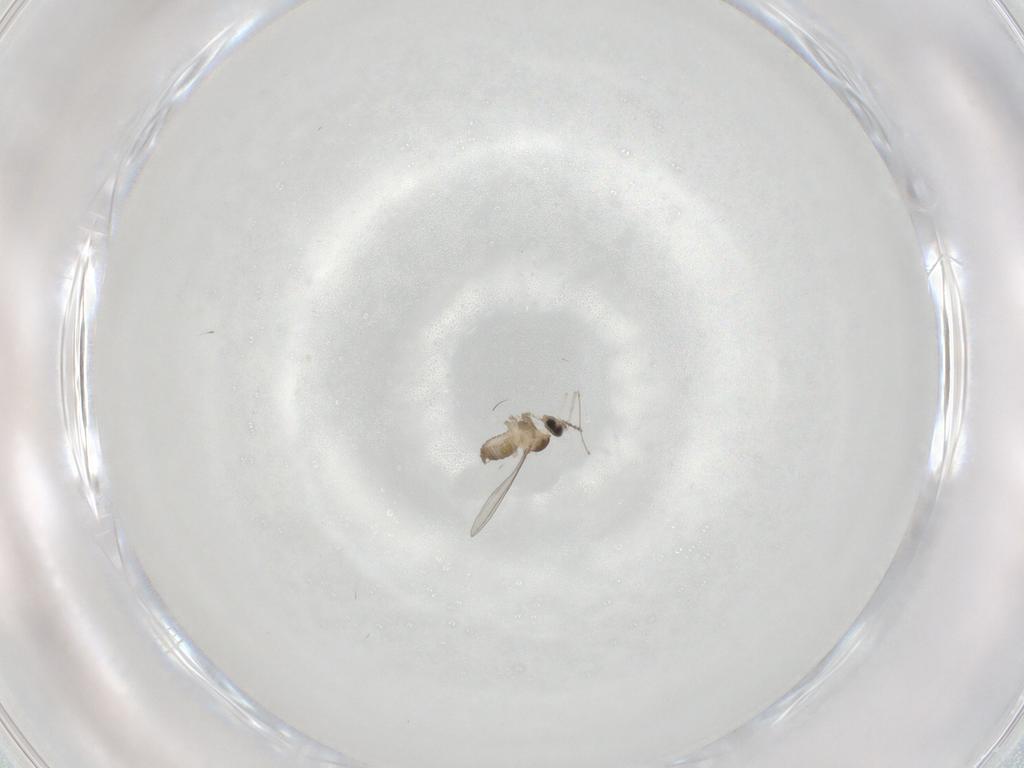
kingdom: Animalia
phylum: Arthropoda
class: Insecta
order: Diptera
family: Cecidomyiidae
